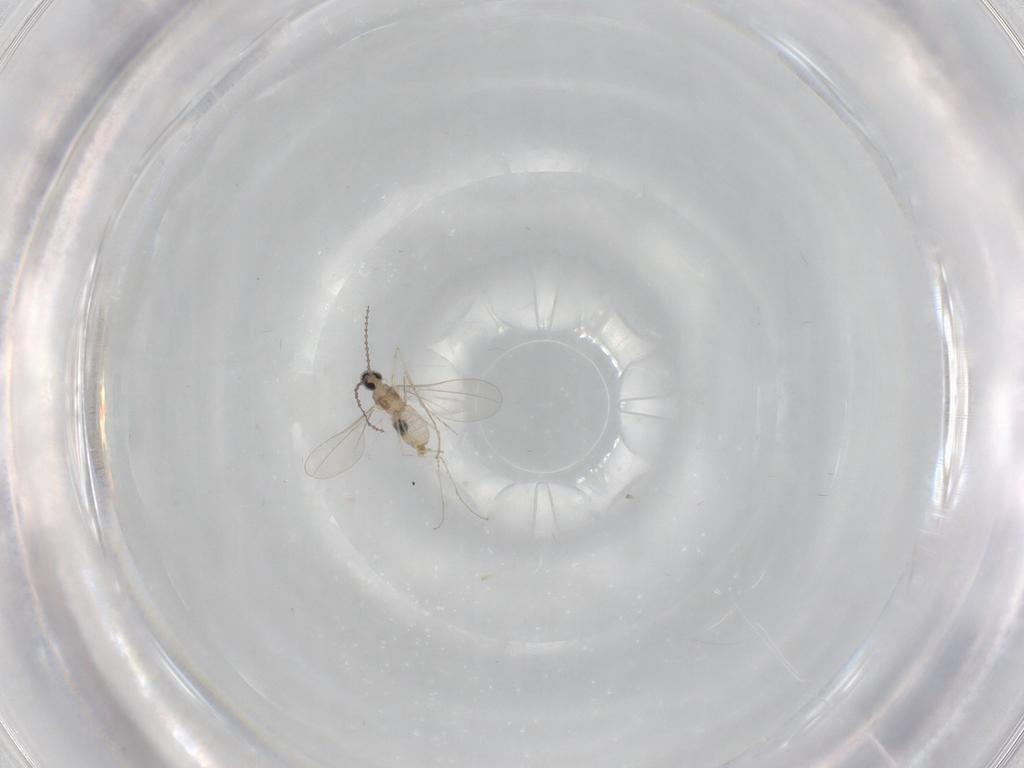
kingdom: Animalia
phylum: Arthropoda
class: Insecta
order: Diptera
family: Cecidomyiidae
